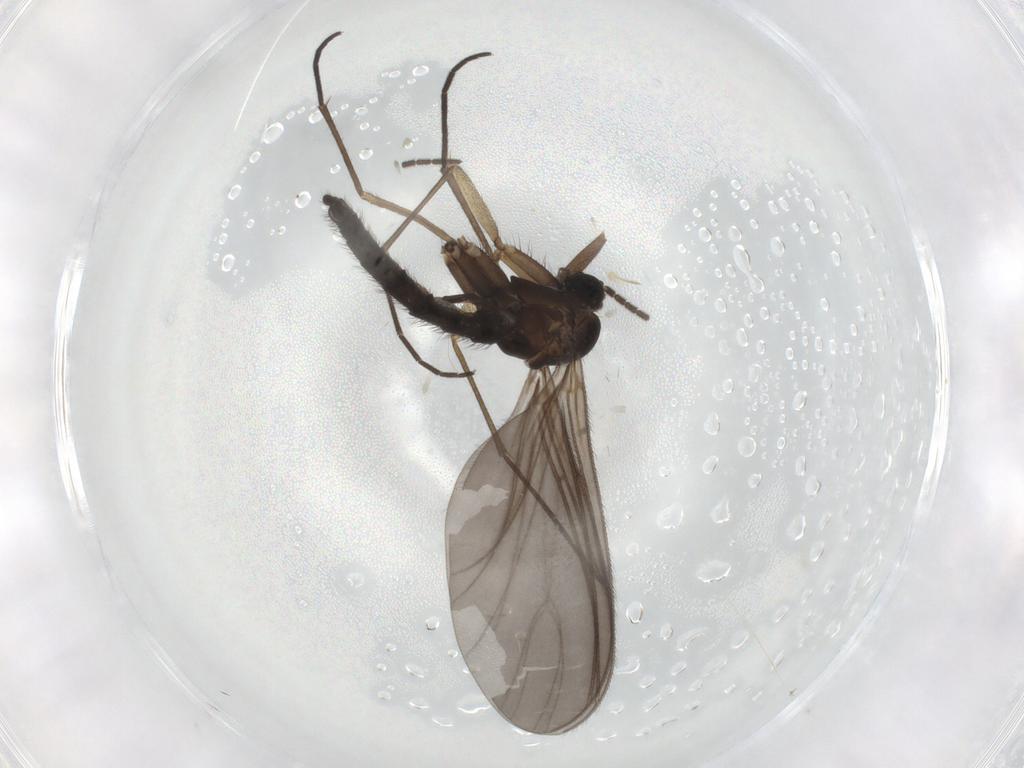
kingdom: Animalia
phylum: Arthropoda
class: Insecta
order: Diptera
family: Sciaridae
